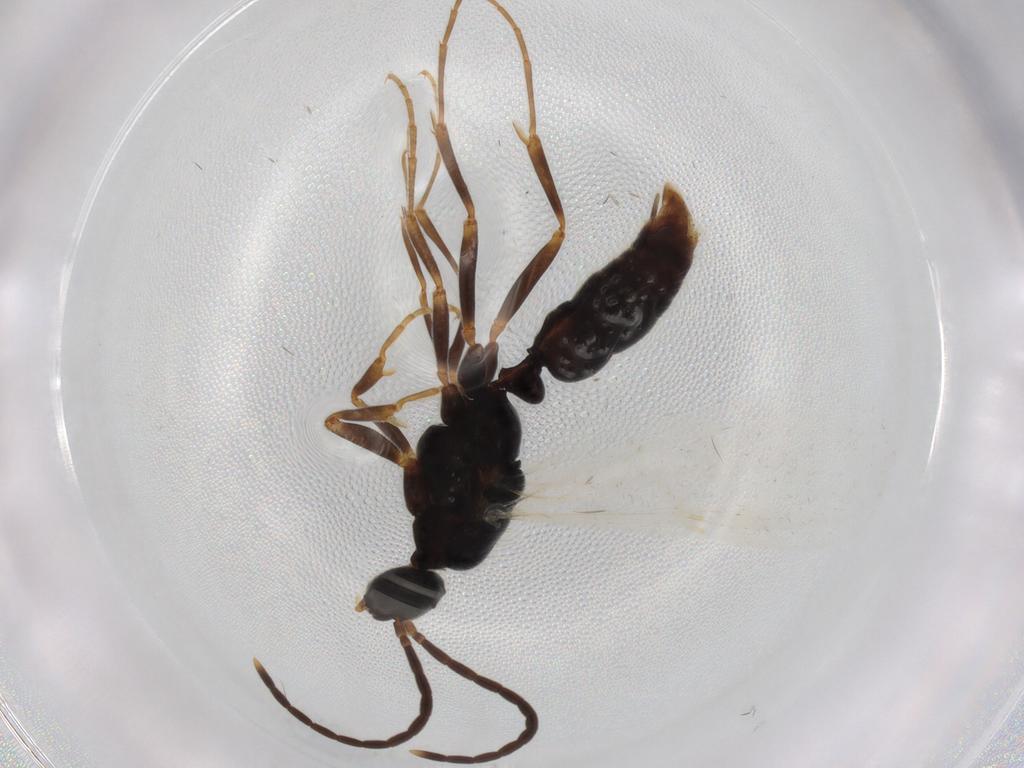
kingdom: Animalia
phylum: Arthropoda
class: Insecta
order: Hymenoptera
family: Formicidae
